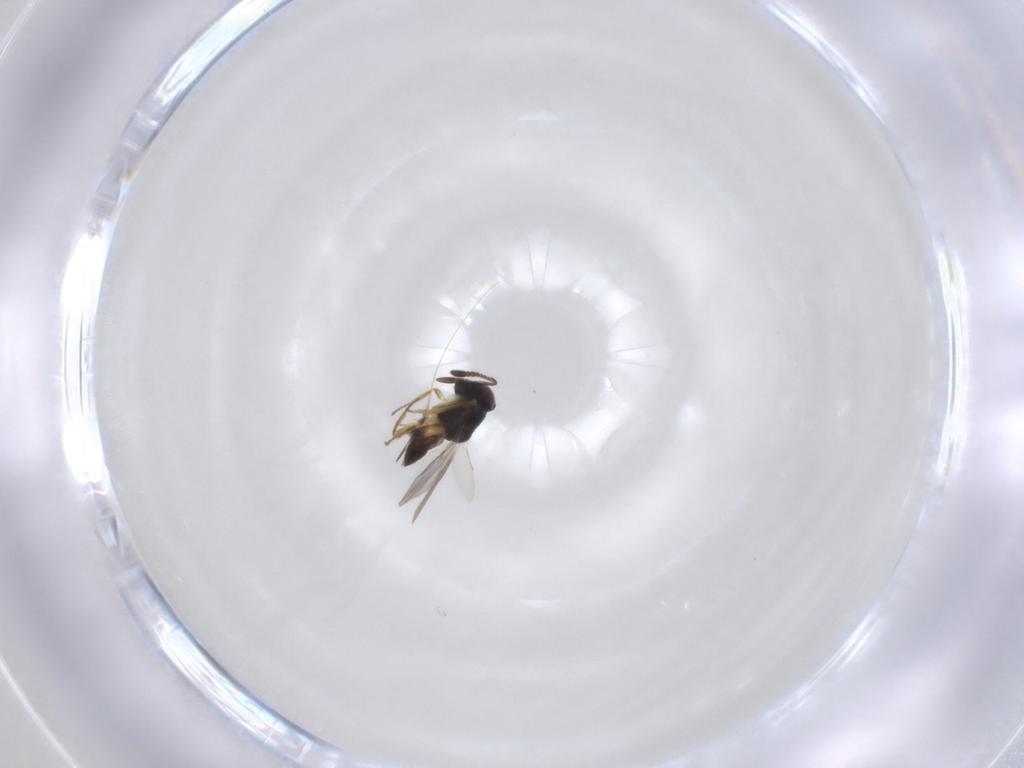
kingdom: Animalia
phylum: Arthropoda
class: Insecta
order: Hymenoptera
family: Encyrtidae
